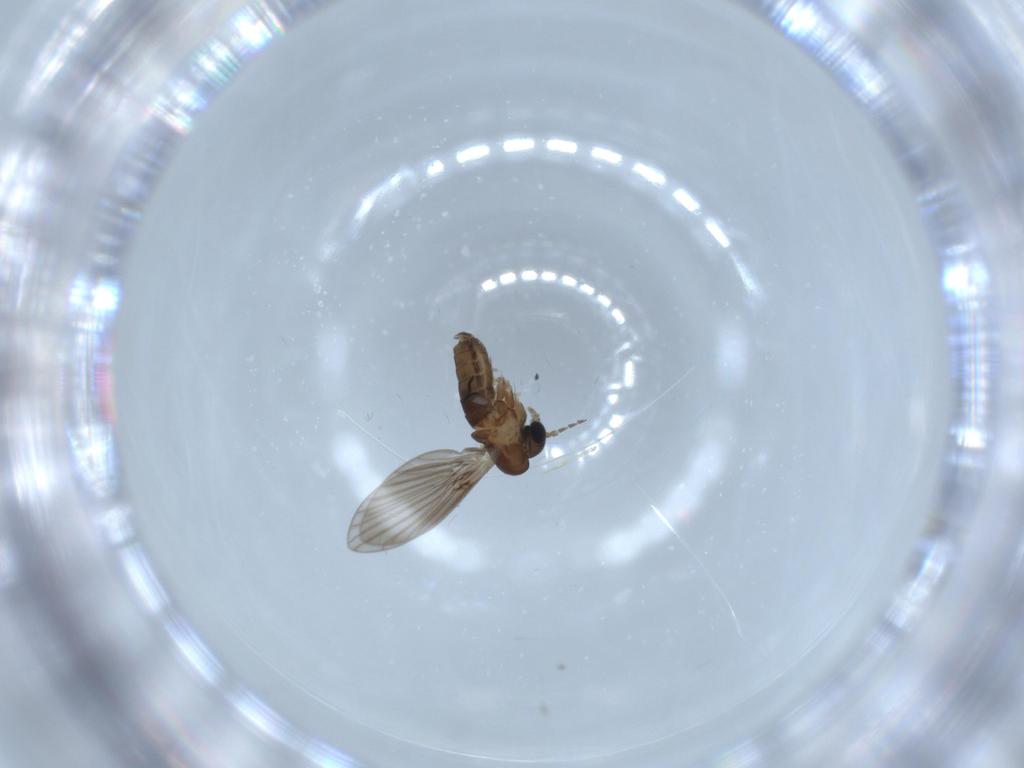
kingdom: Animalia
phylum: Arthropoda
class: Insecta
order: Diptera
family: Psychodidae
